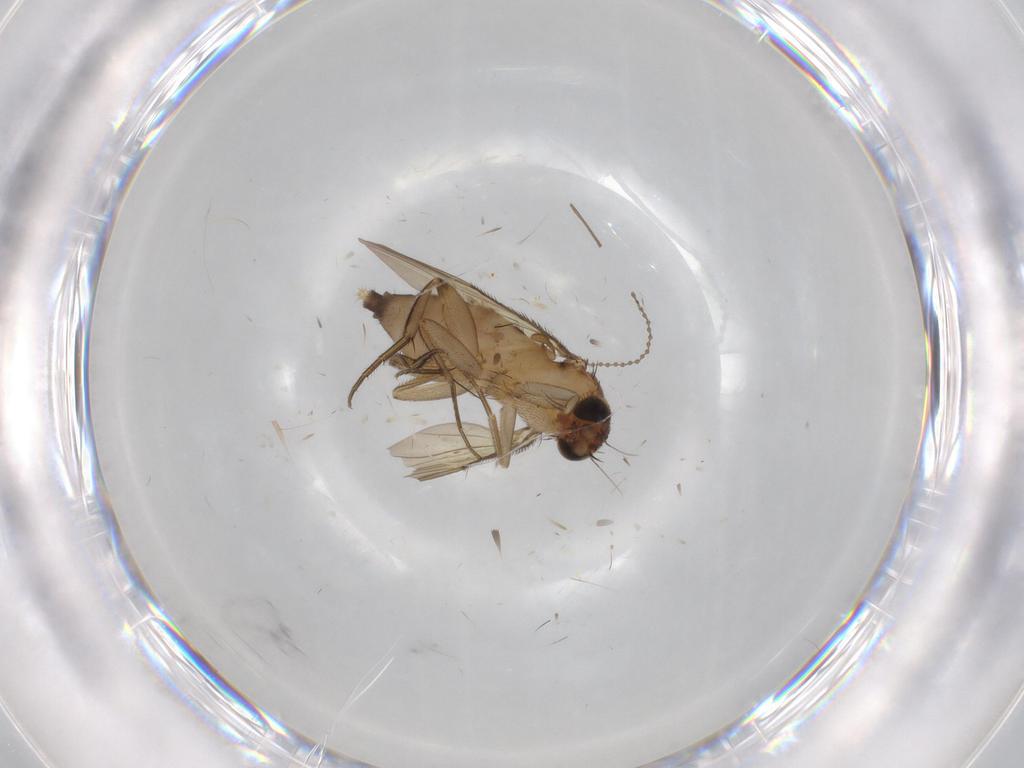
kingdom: Animalia
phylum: Arthropoda
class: Insecta
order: Diptera
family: Phoridae
